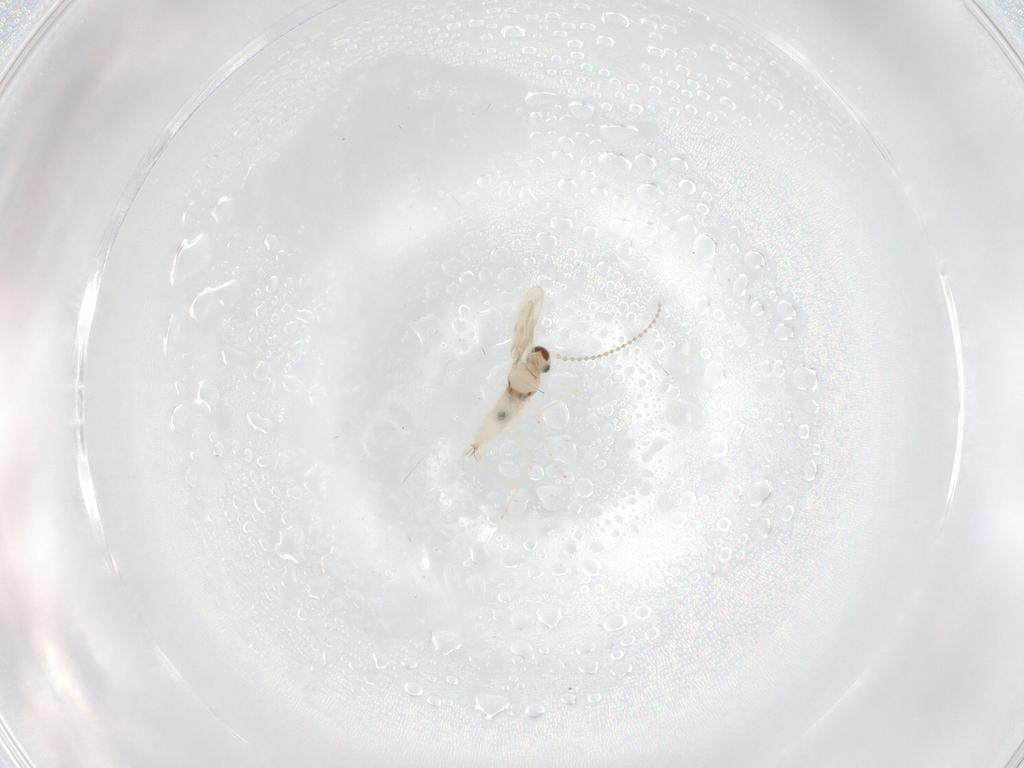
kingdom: Animalia
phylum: Arthropoda
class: Insecta
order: Diptera
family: Cecidomyiidae
